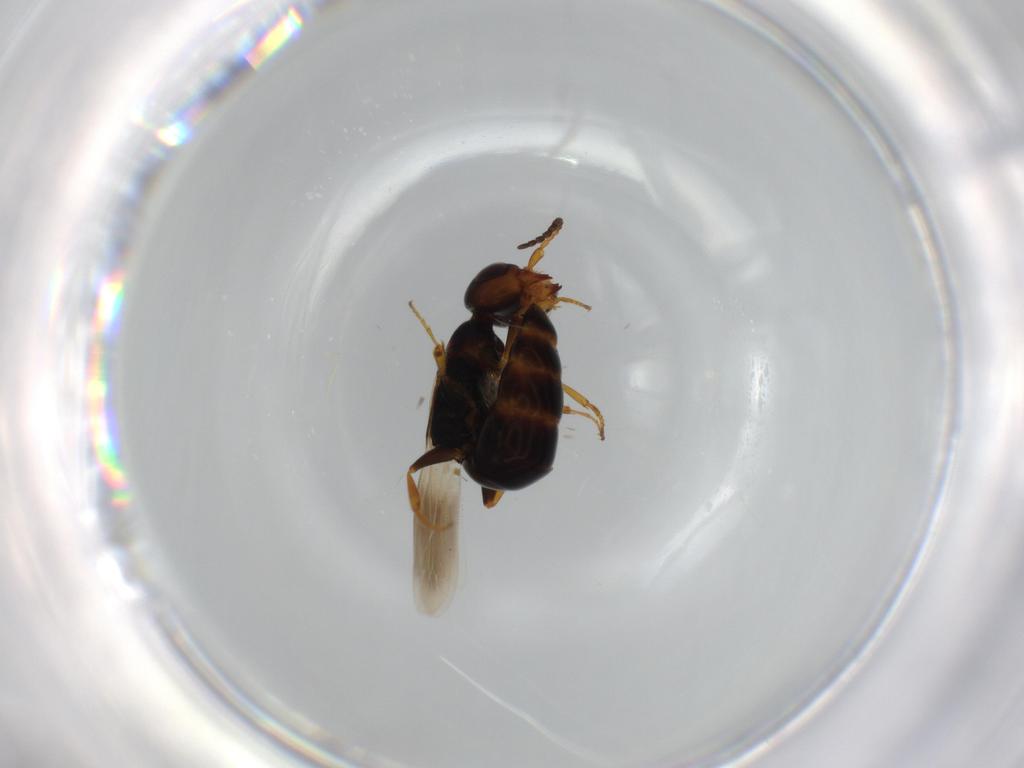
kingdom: Animalia
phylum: Arthropoda
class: Insecta
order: Hymenoptera
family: Bethylidae
